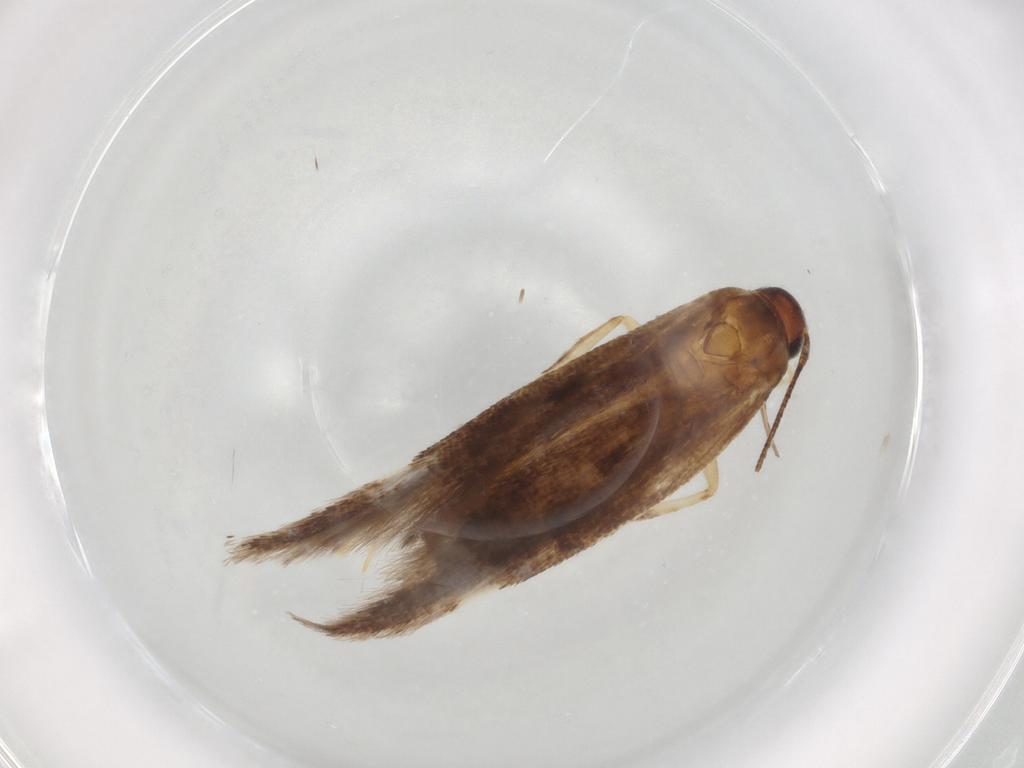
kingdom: Animalia
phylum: Arthropoda
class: Insecta
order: Lepidoptera
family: Gelechiidae
